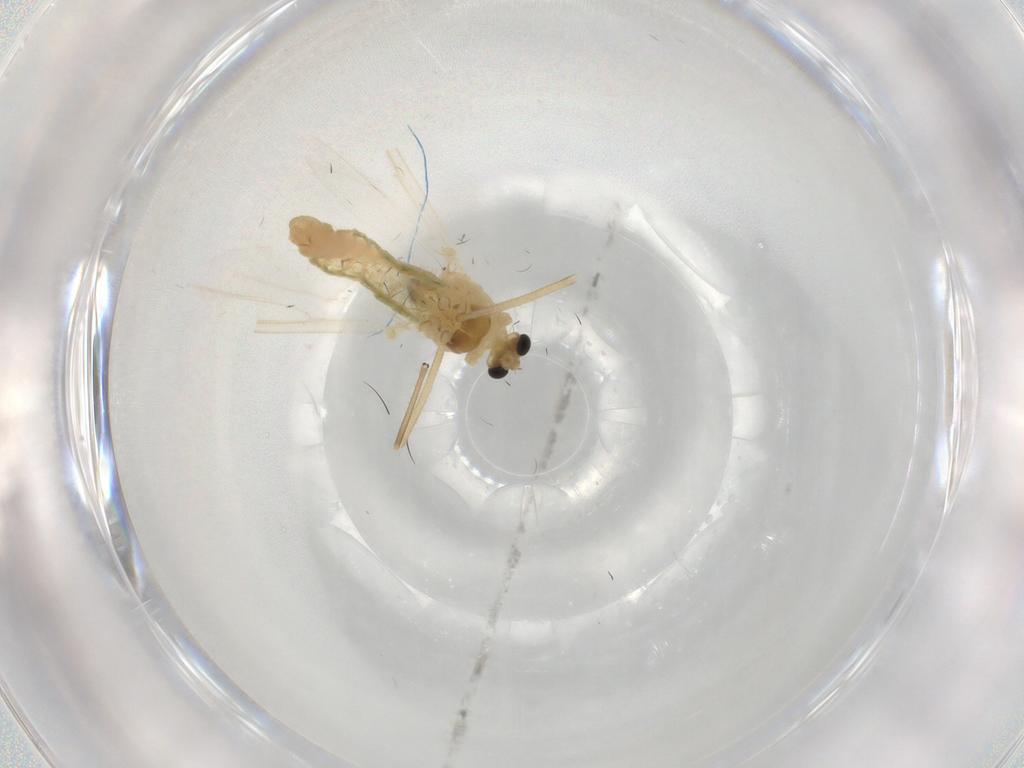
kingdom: Animalia
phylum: Arthropoda
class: Insecta
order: Diptera
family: Chironomidae
